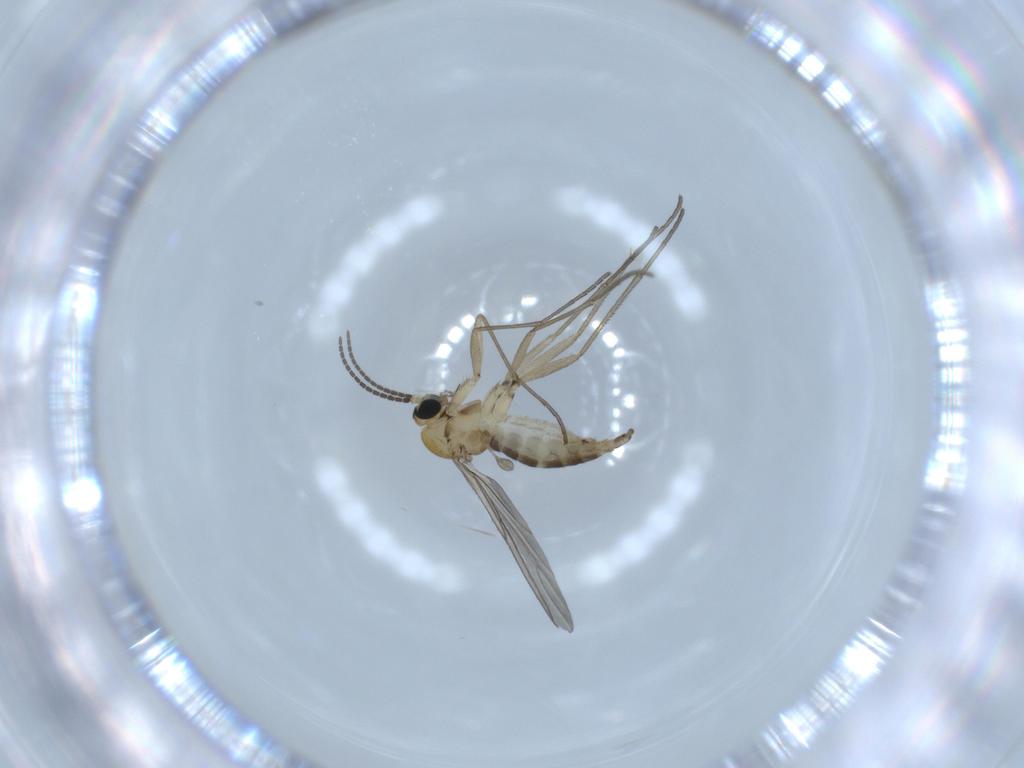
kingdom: Animalia
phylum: Arthropoda
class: Insecta
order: Diptera
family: Sciaridae
